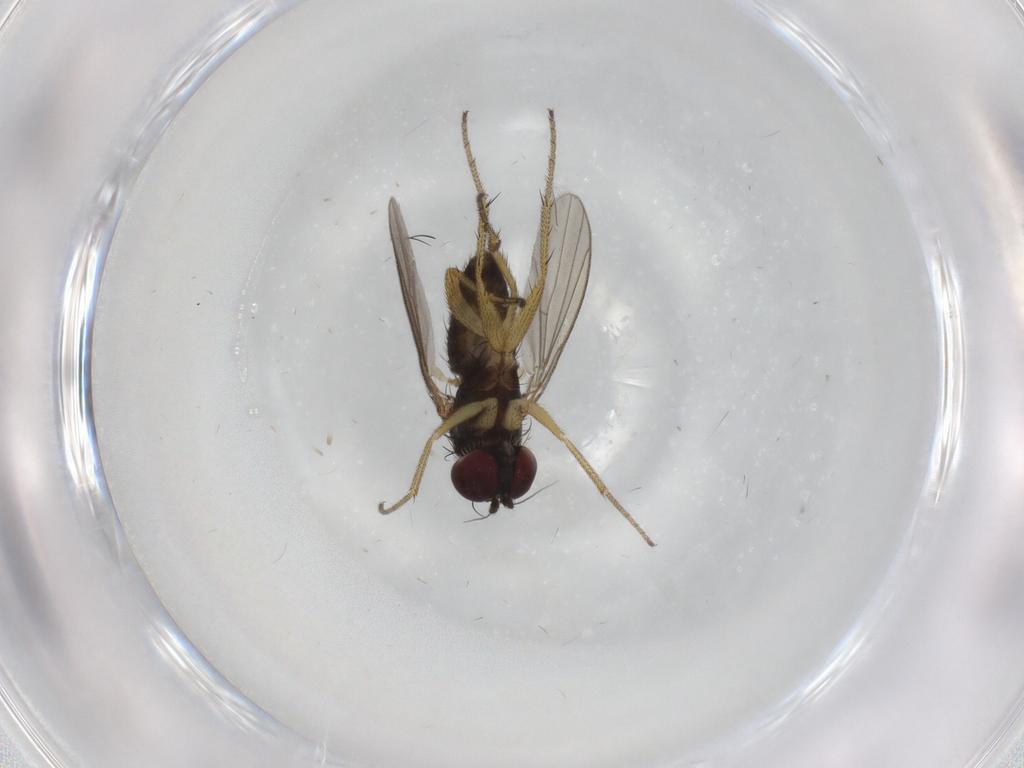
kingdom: Animalia
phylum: Arthropoda
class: Insecta
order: Diptera
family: Dolichopodidae
